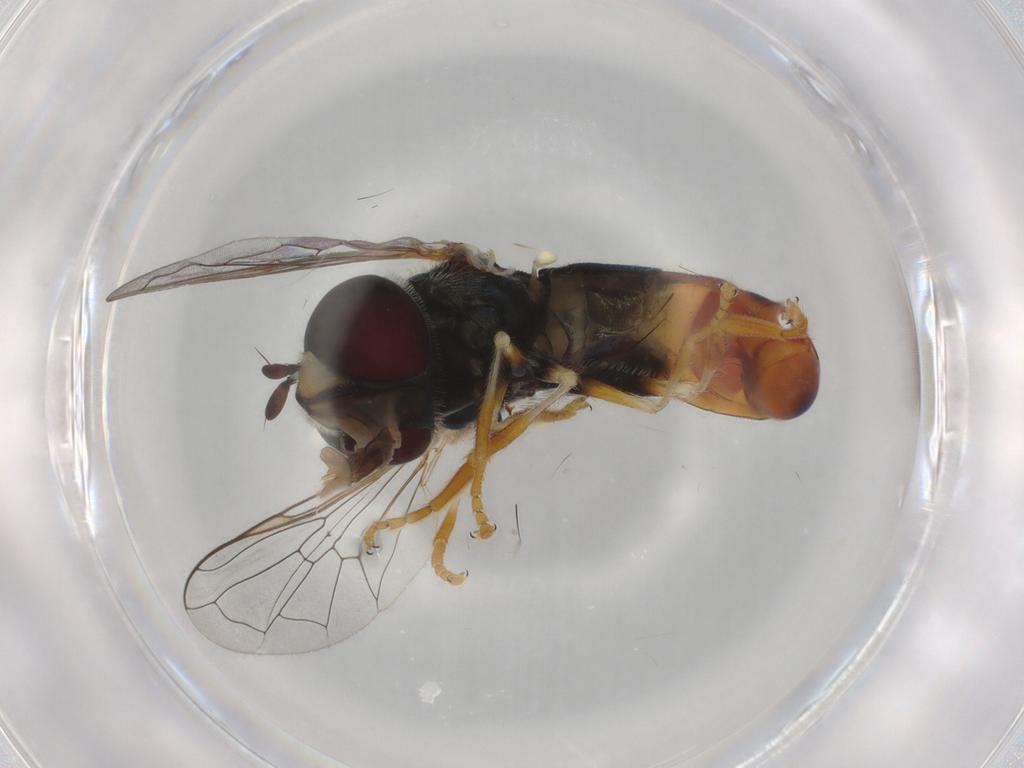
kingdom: Animalia
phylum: Arthropoda
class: Insecta
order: Diptera
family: Syrphidae
